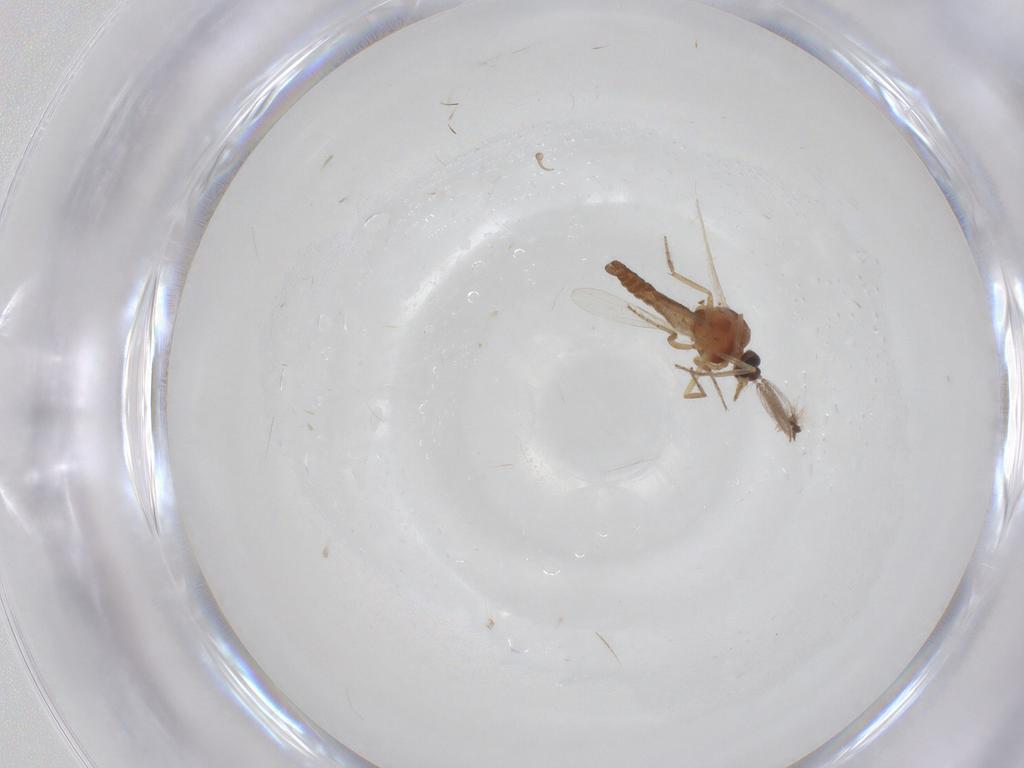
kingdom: Animalia
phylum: Arthropoda
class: Insecta
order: Diptera
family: Ceratopogonidae
